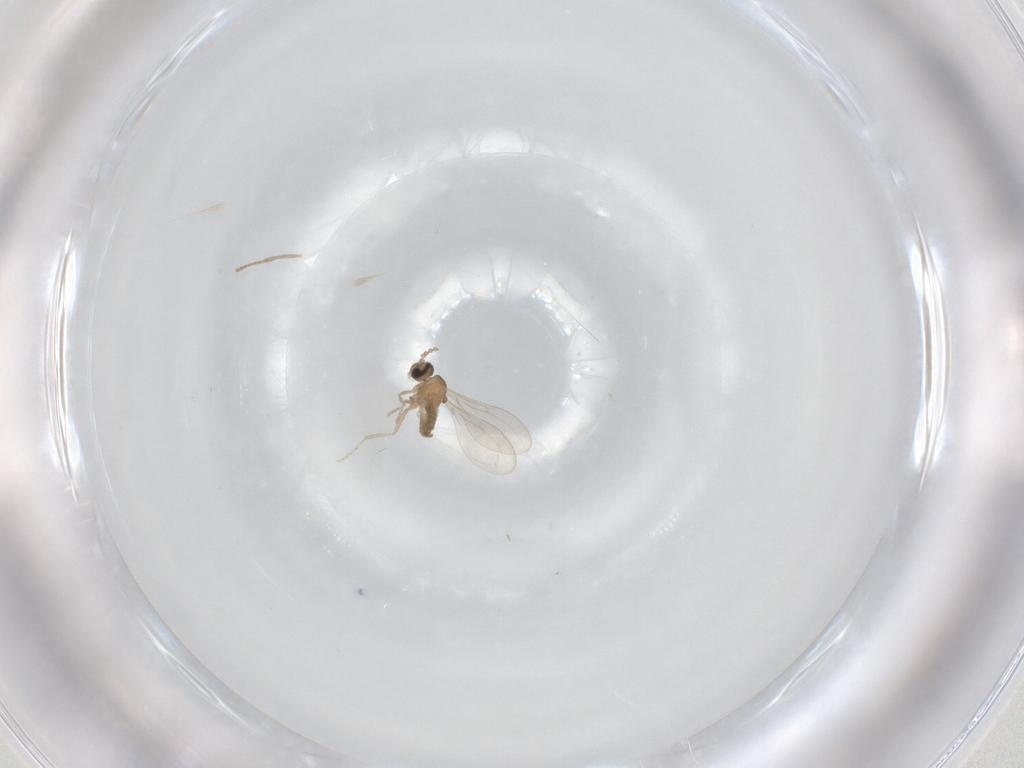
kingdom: Animalia
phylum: Arthropoda
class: Insecta
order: Diptera
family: Cecidomyiidae
